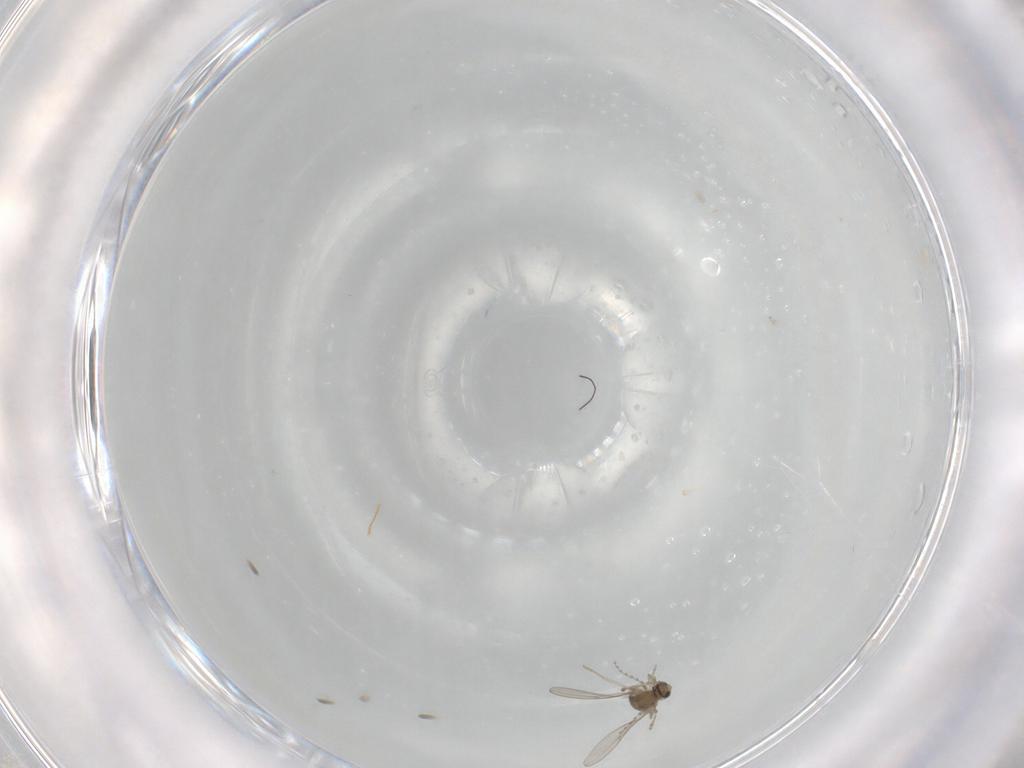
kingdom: Animalia
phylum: Arthropoda
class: Insecta
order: Diptera
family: Cecidomyiidae
